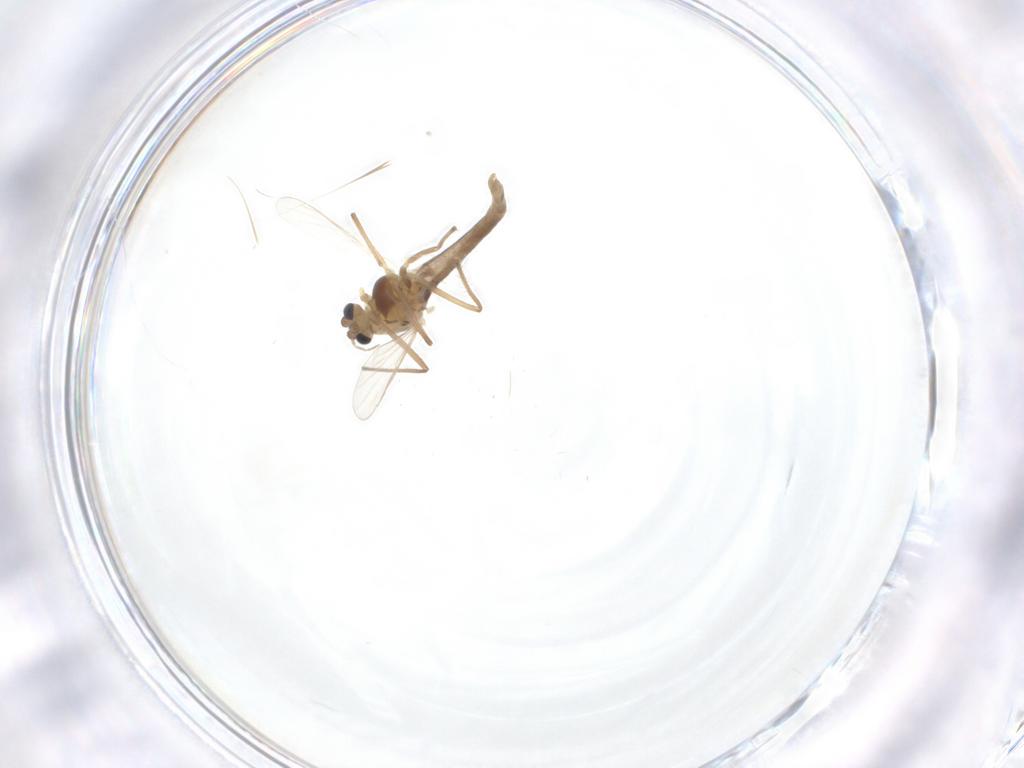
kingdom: Animalia
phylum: Arthropoda
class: Insecta
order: Diptera
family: Chironomidae
